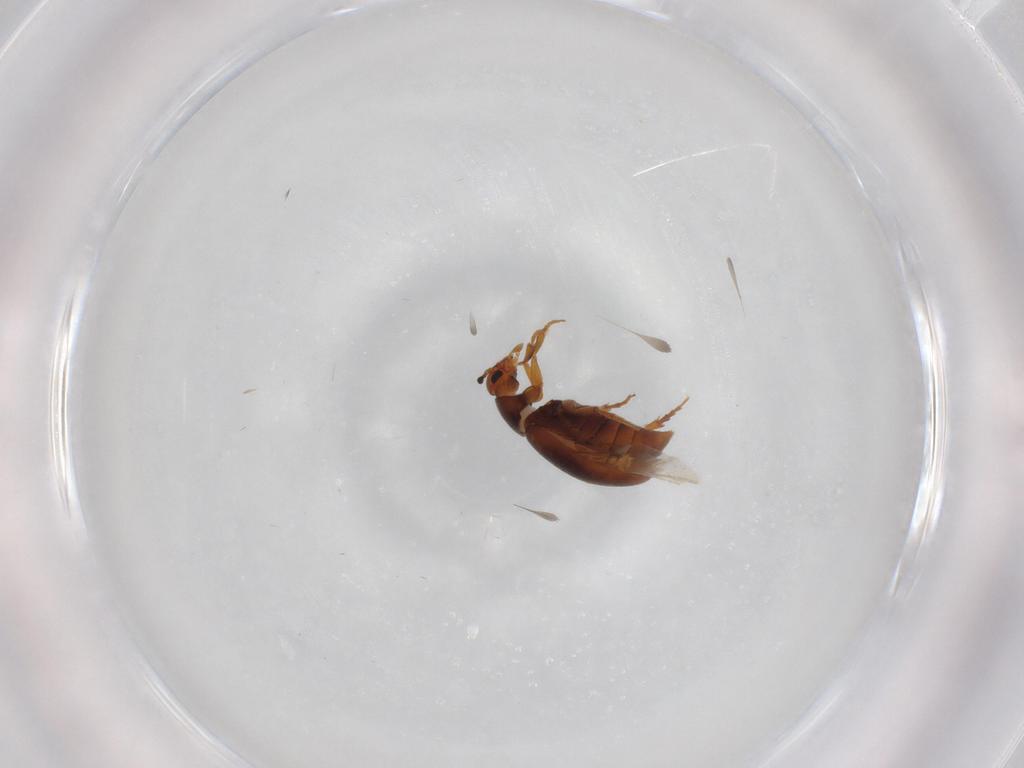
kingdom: Animalia
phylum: Arthropoda
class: Insecta
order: Coleoptera
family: Scraptiidae
